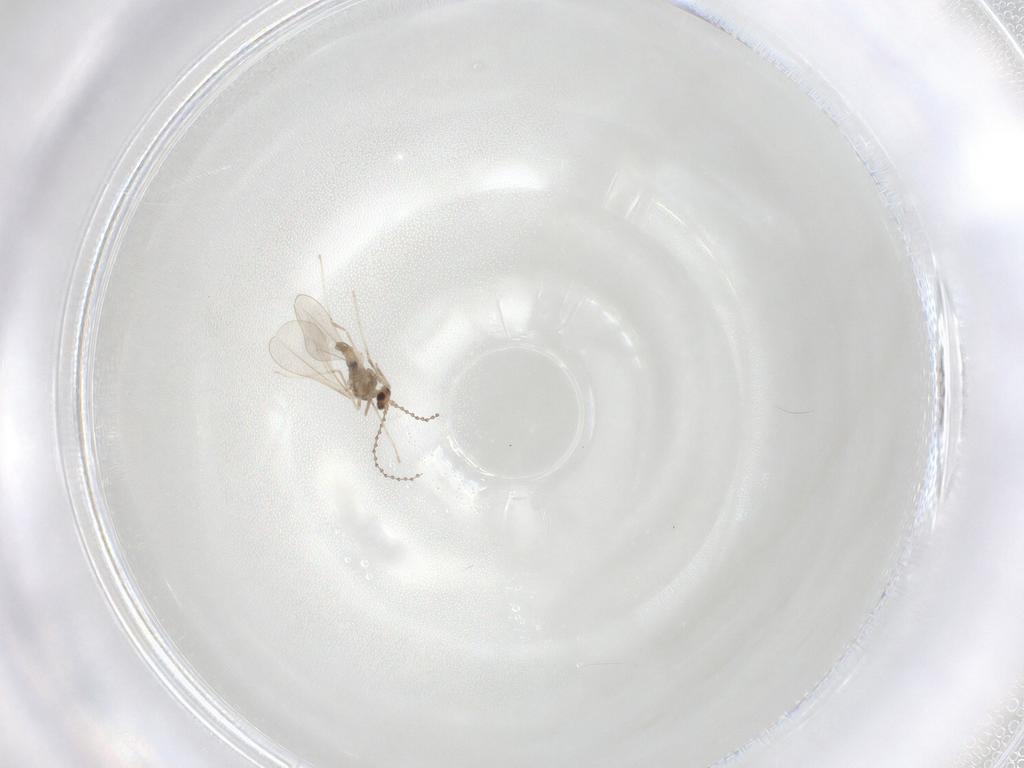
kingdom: Animalia
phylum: Arthropoda
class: Insecta
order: Diptera
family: Cecidomyiidae
